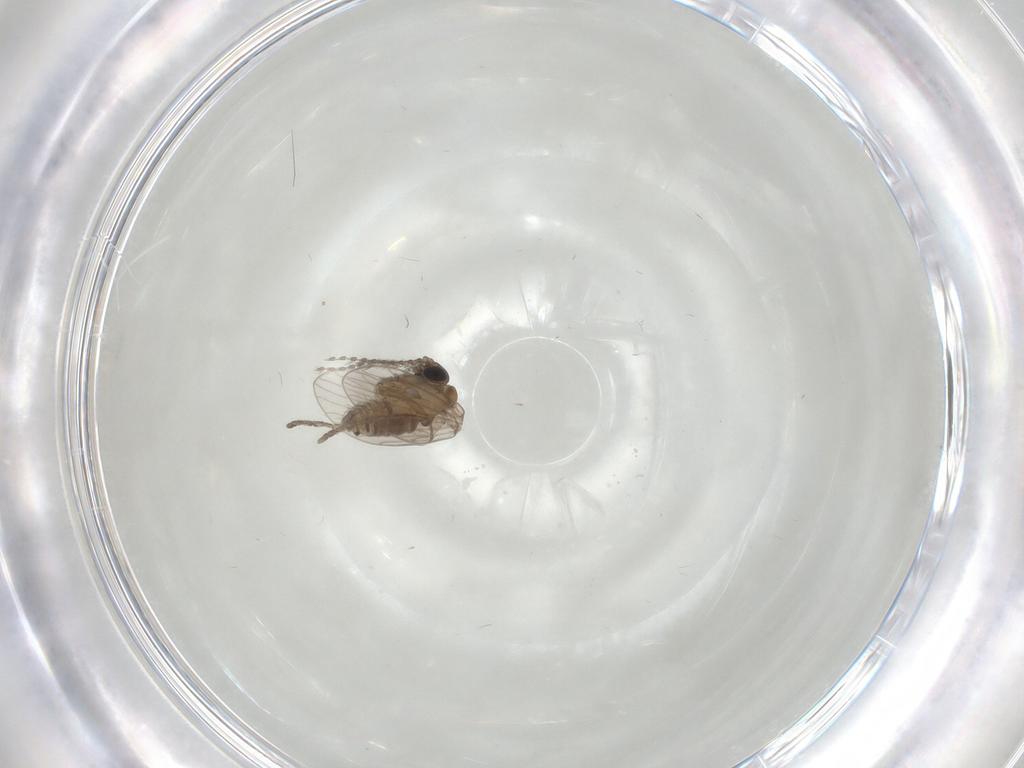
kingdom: Animalia
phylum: Arthropoda
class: Insecta
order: Diptera
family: Psychodidae
